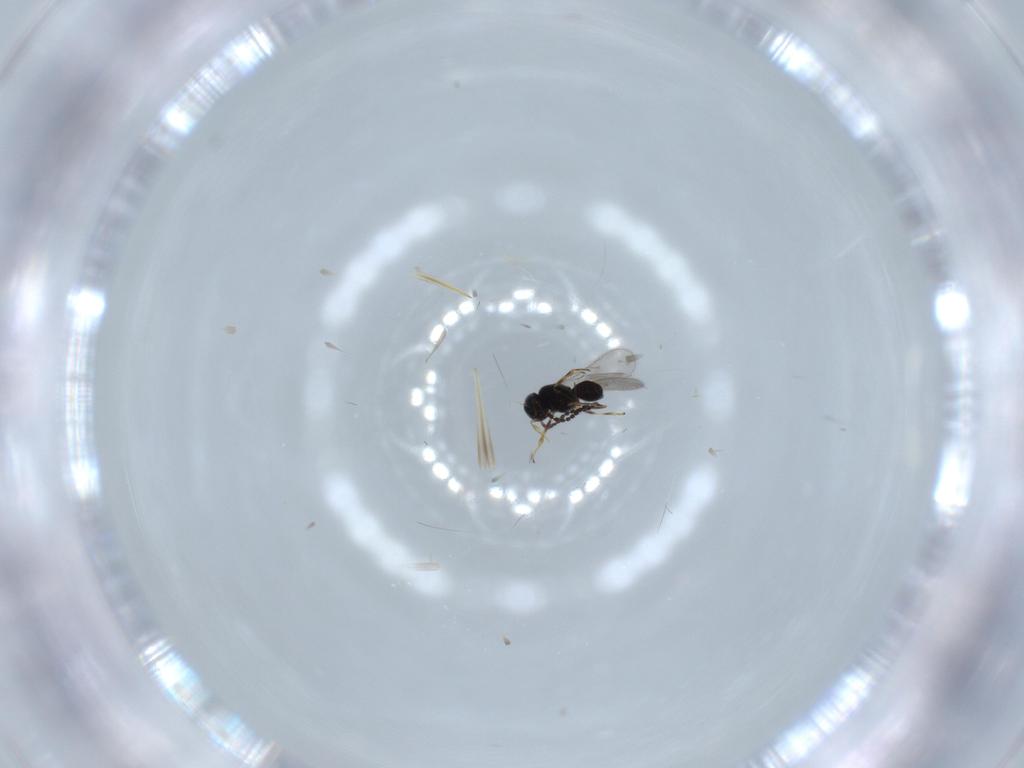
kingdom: Animalia
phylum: Arthropoda
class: Insecta
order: Hymenoptera
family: Scelionidae
